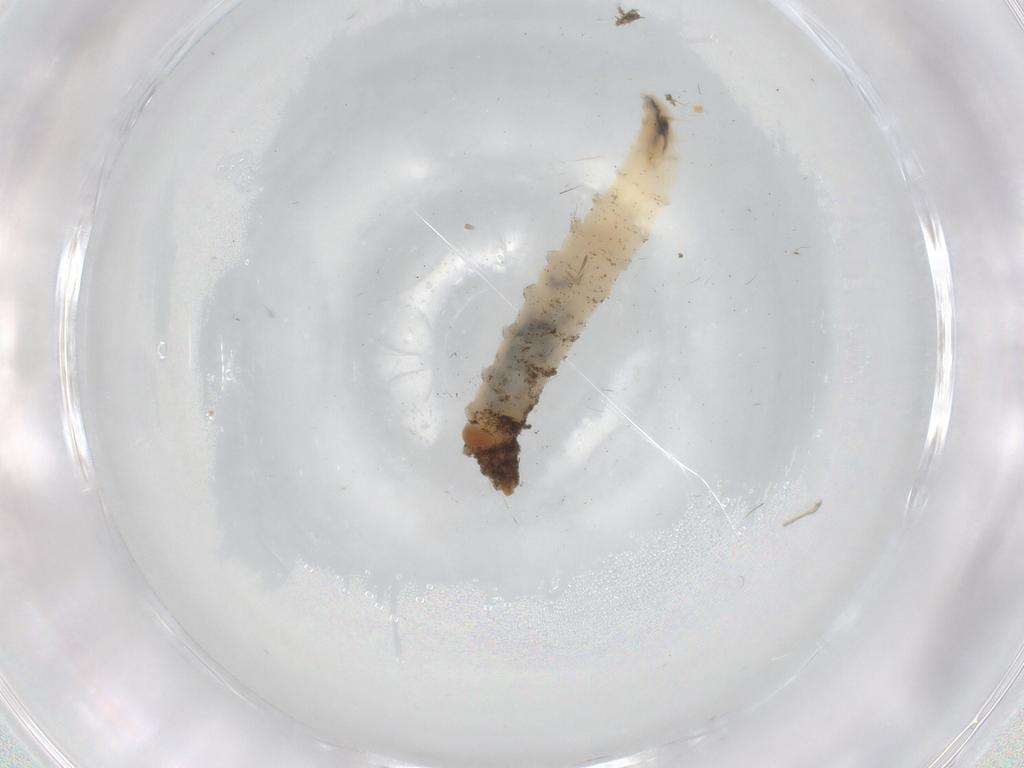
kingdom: Animalia
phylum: Arthropoda
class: Insecta
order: Diptera
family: Drosophilidae
